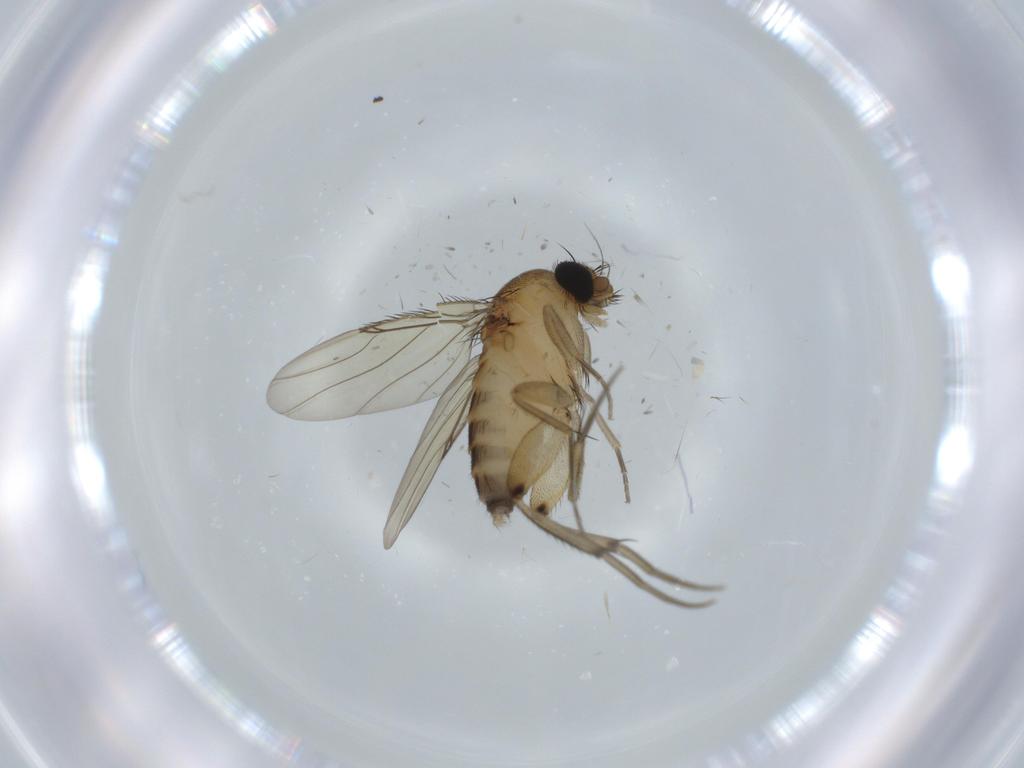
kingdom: Animalia
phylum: Arthropoda
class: Insecta
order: Diptera
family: Phoridae
